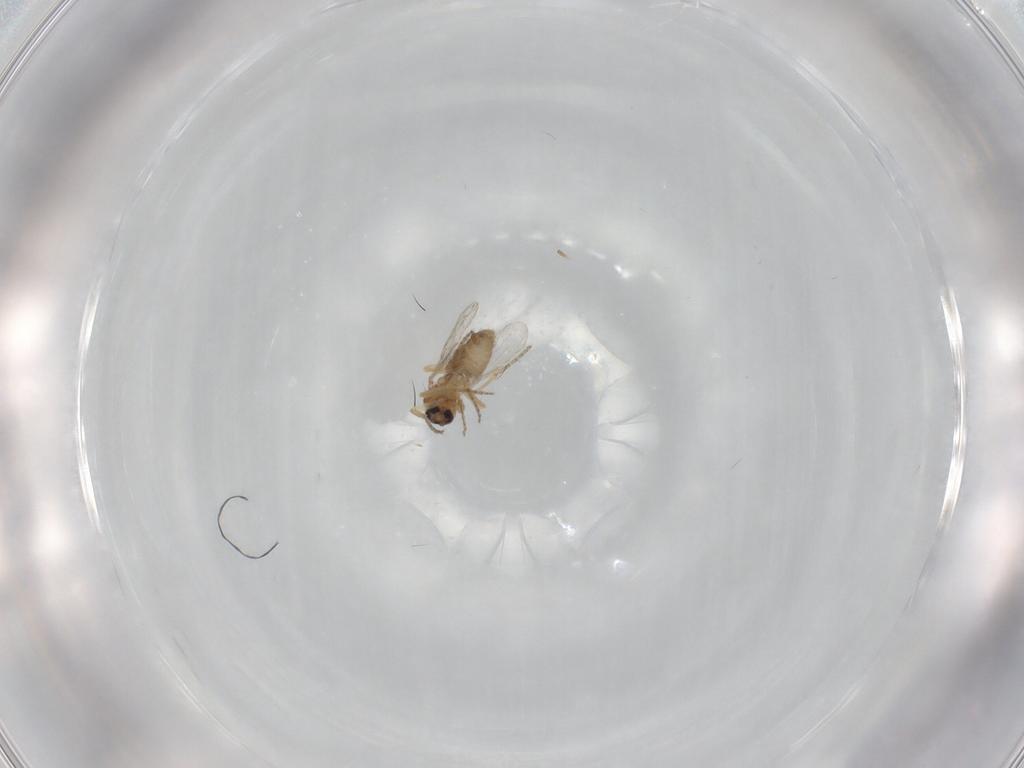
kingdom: Animalia
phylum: Arthropoda
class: Insecta
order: Diptera
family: Ceratopogonidae
